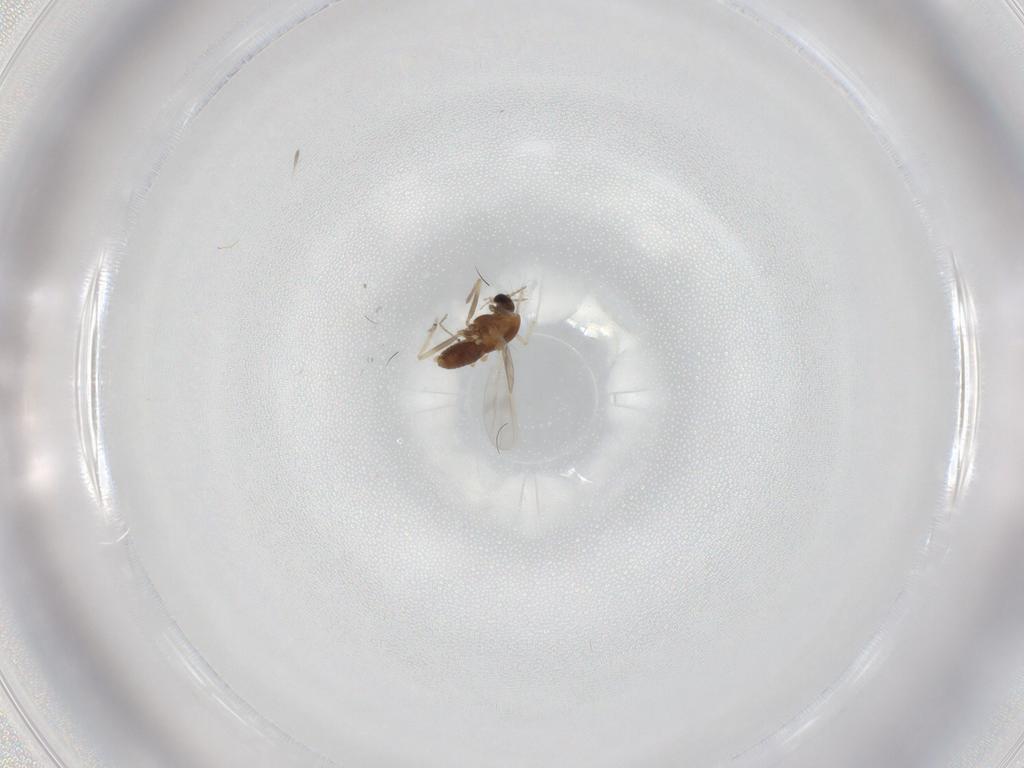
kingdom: Animalia
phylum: Arthropoda
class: Insecta
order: Diptera
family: Chironomidae
